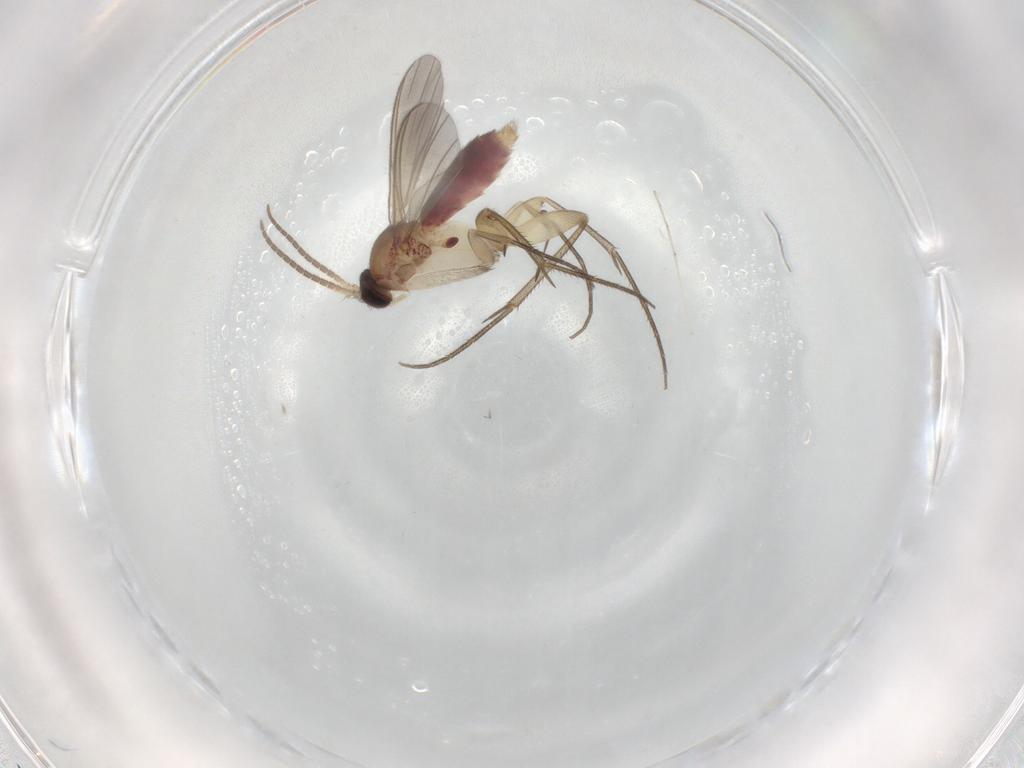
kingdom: Animalia
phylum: Arthropoda
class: Insecta
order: Diptera
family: Mycetophilidae
